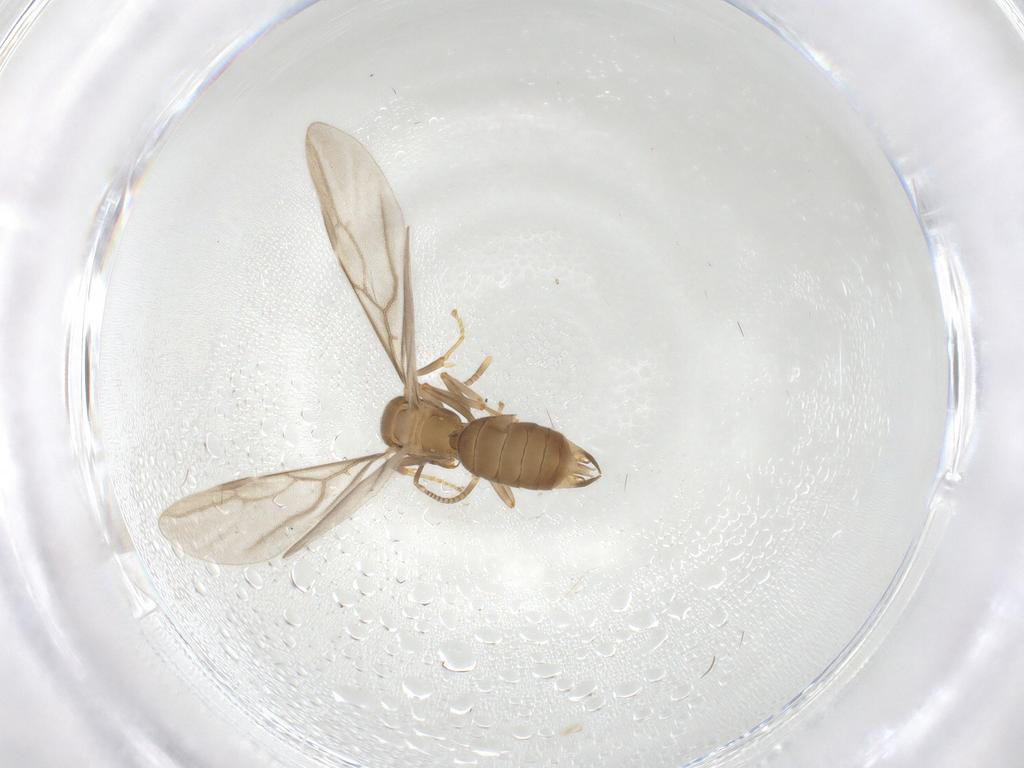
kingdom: Animalia
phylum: Arthropoda
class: Insecta
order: Hymenoptera
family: Formicidae
